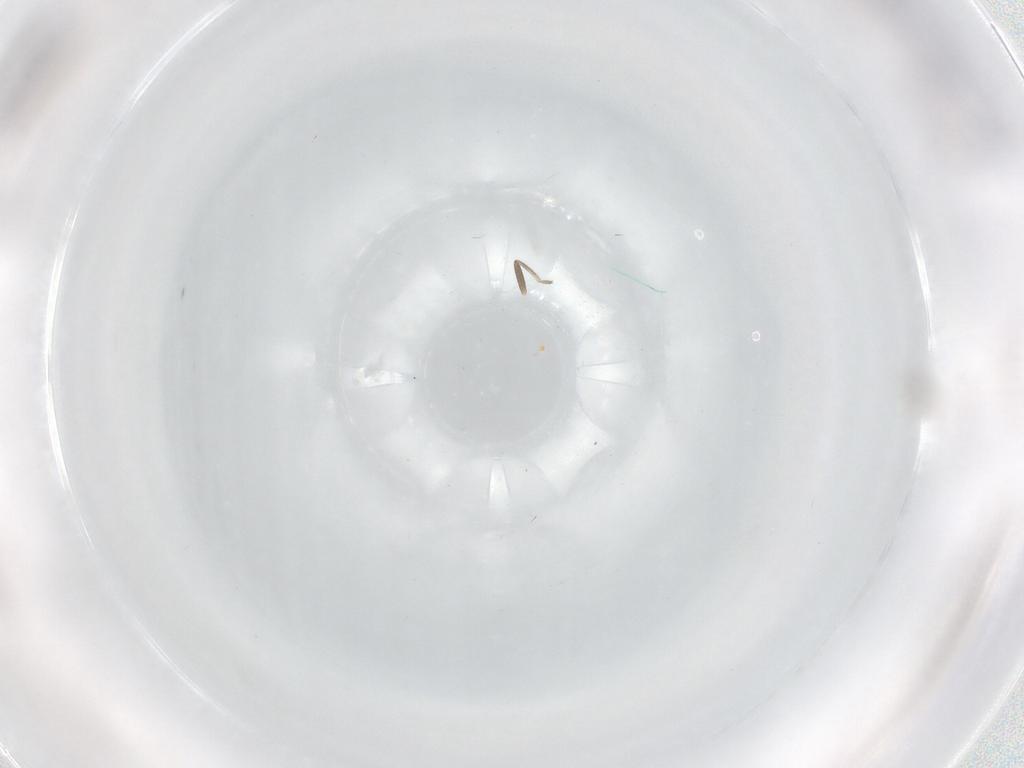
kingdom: Animalia
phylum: Arthropoda
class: Insecta
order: Diptera
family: Phoridae
